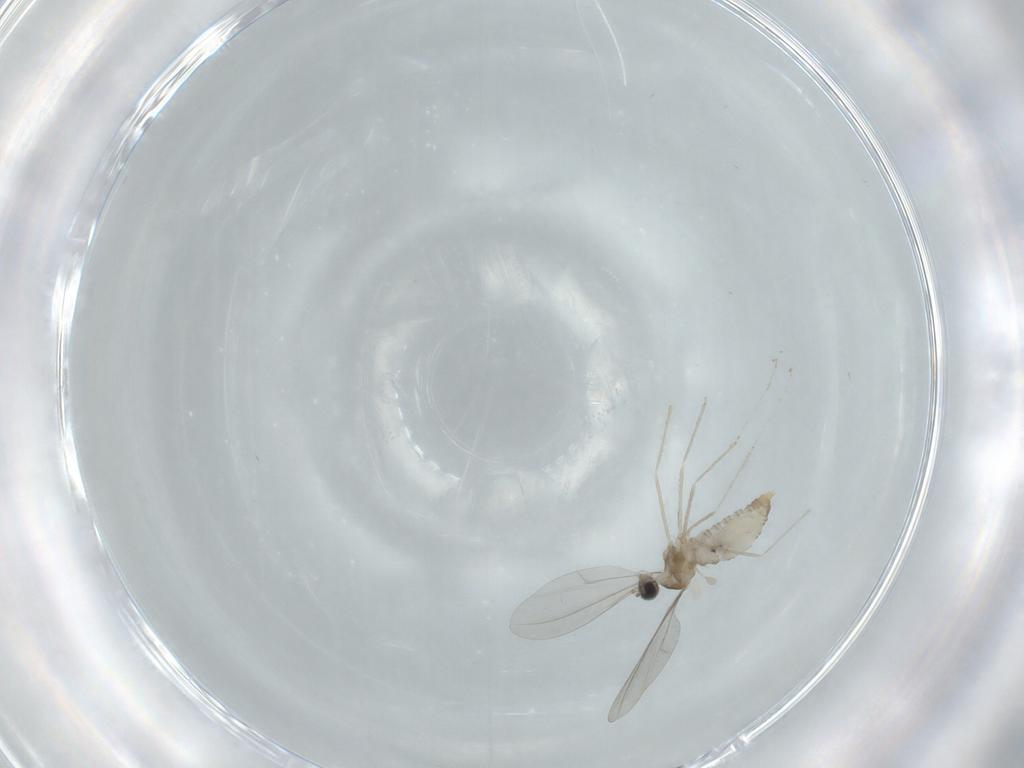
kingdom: Animalia
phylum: Arthropoda
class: Insecta
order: Diptera
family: Cecidomyiidae
